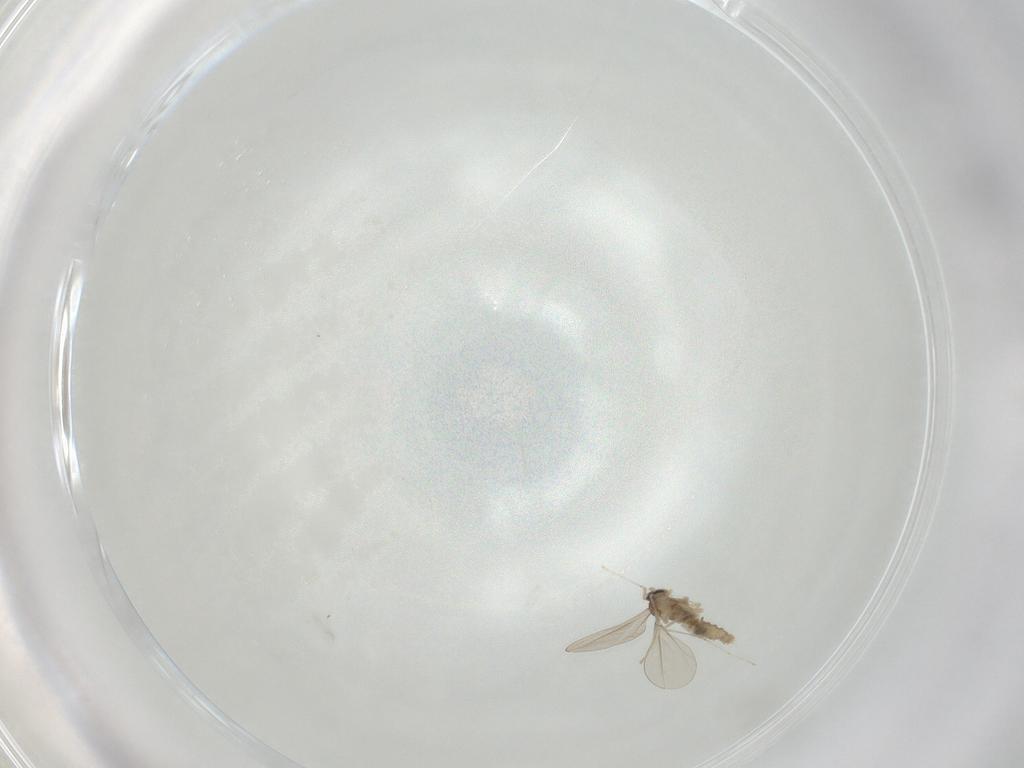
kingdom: Animalia
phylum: Arthropoda
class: Insecta
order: Diptera
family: Cecidomyiidae
